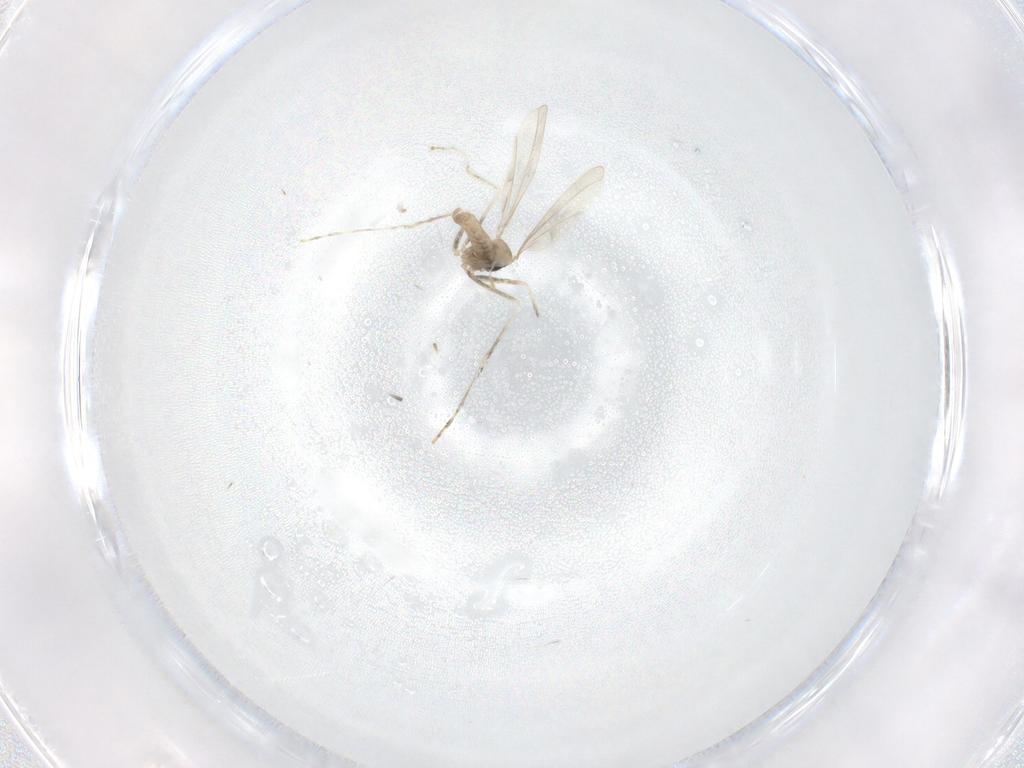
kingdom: Animalia
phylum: Arthropoda
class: Insecta
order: Diptera
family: Cecidomyiidae
